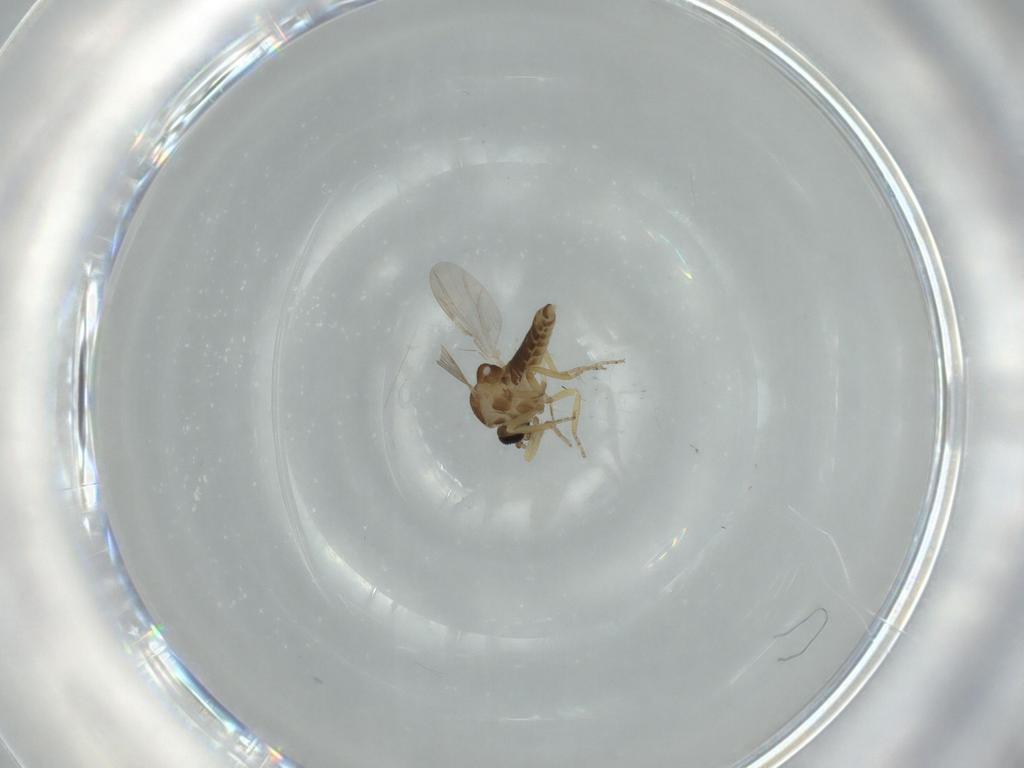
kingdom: Animalia
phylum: Arthropoda
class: Insecta
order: Diptera
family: Ceratopogonidae
